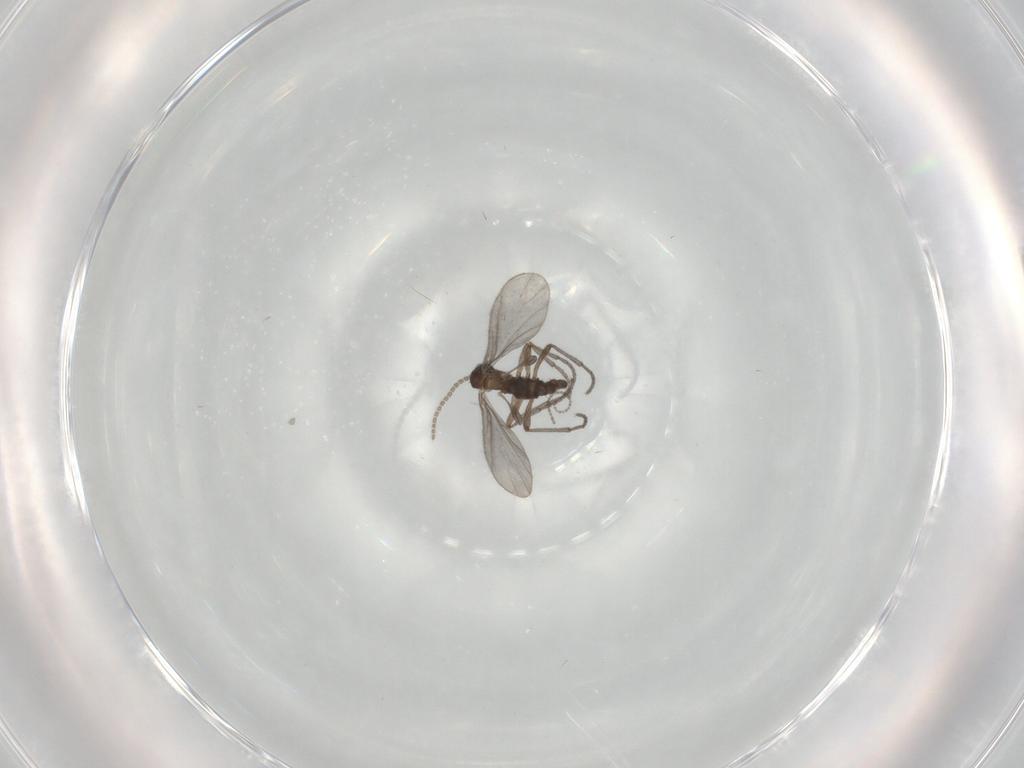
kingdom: Animalia
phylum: Arthropoda
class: Insecta
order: Diptera
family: Sciaridae
